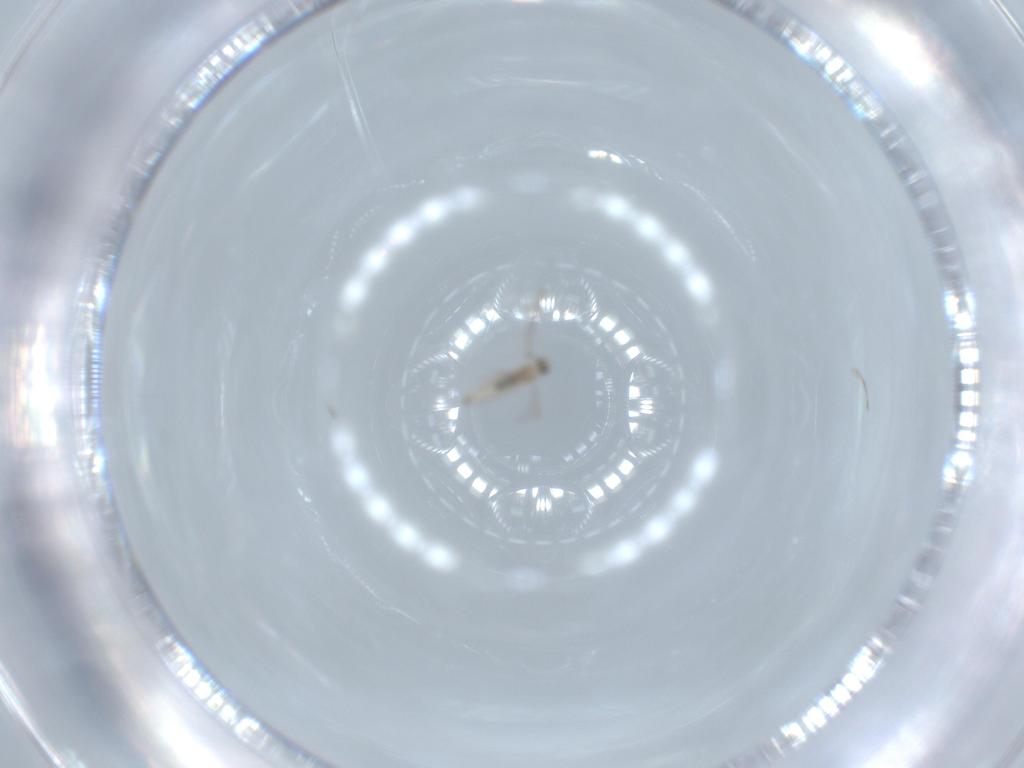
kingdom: Animalia
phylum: Arthropoda
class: Insecta
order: Diptera
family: Cecidomyiidae
